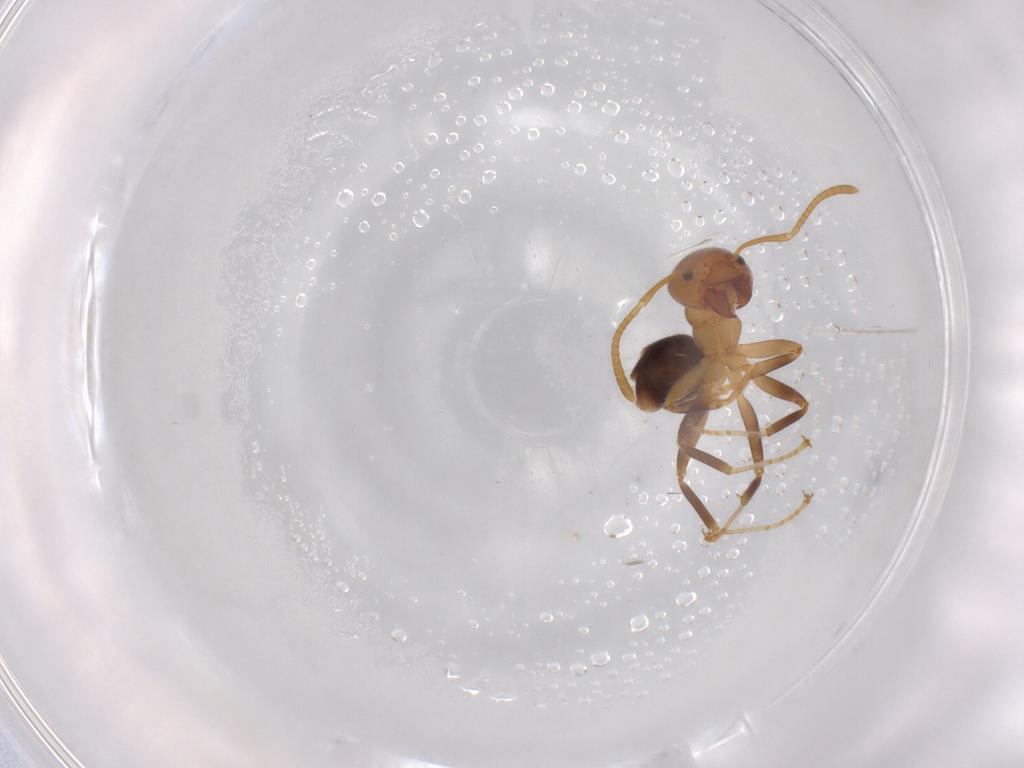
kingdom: Animalia
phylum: Arthropoda
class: Insecta
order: Hymenoptera
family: Formicidae
